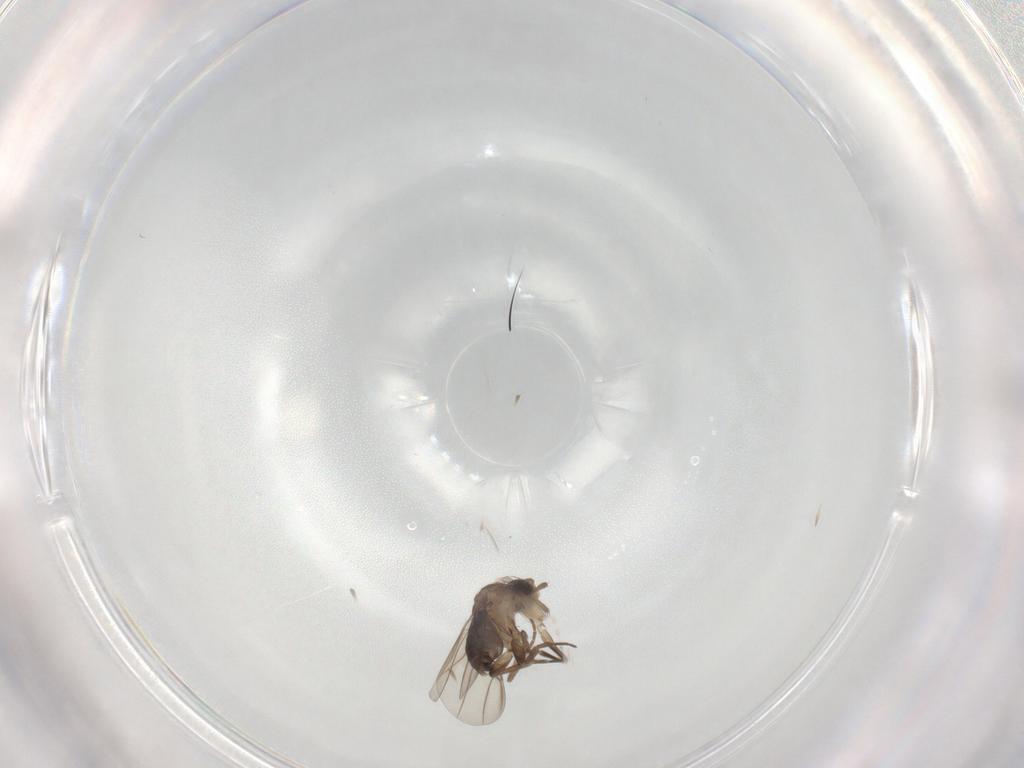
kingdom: Animalia
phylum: Arthropoda
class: Insecta
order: Diptera
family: Phoridae
